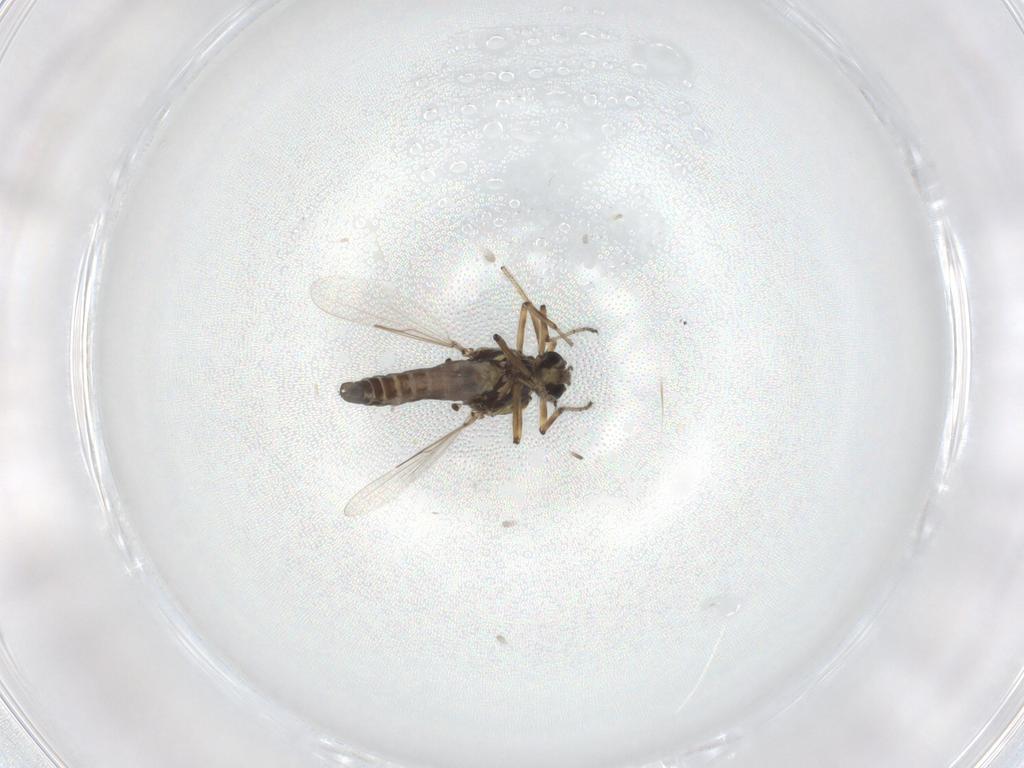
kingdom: Animalia
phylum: Arthropoda
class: Insecta
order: Diptera
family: Ceratopogonidae
